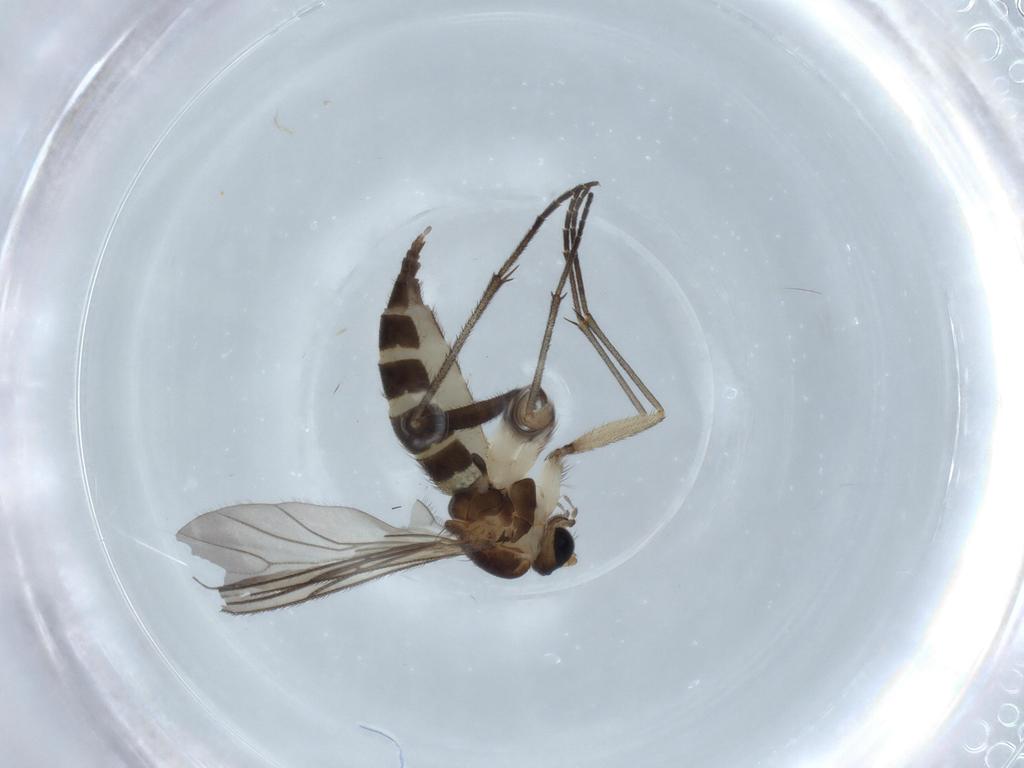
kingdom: Animalia
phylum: Arthropoda
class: Insecta
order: Diptera
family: Sciaridae
